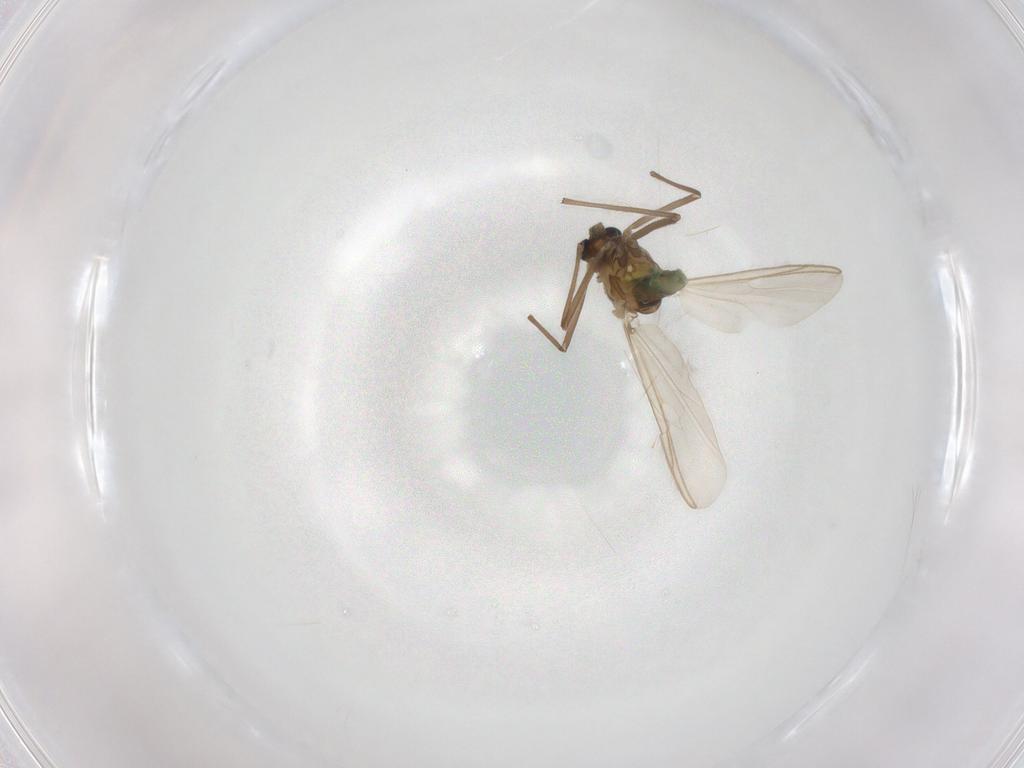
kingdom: Animalia
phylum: Arthropoda
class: Insecta
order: Diptera
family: Chironomidae
